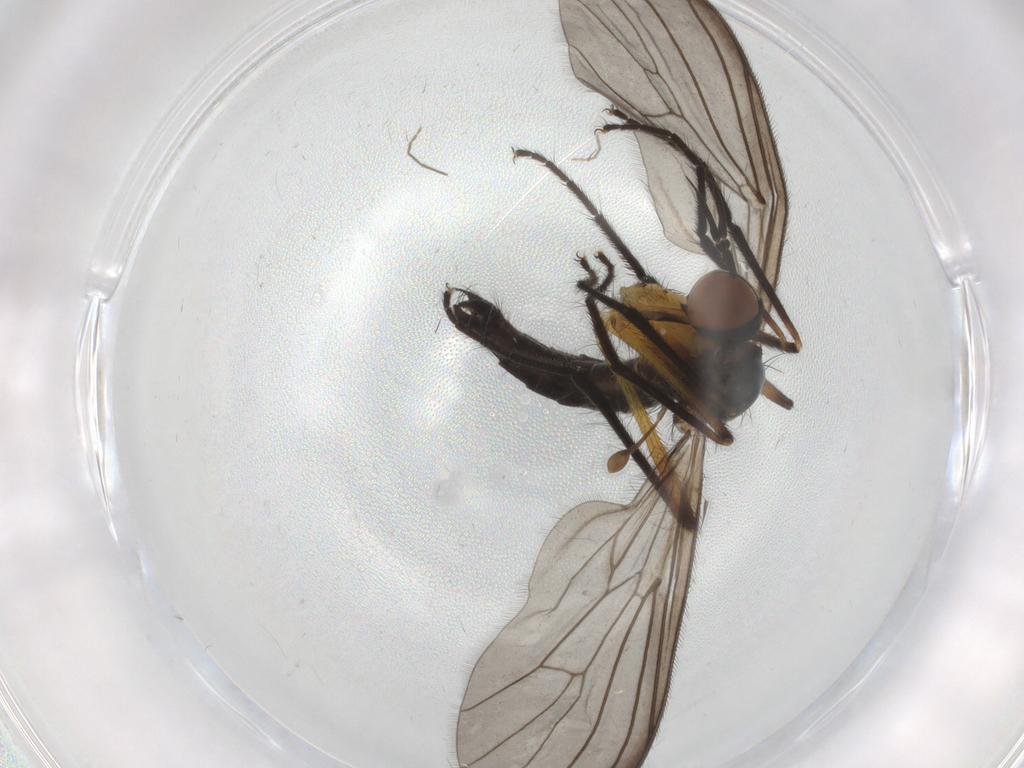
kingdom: Animalia
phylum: Arthropoda
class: Insecta
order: Diptera
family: Empididae
